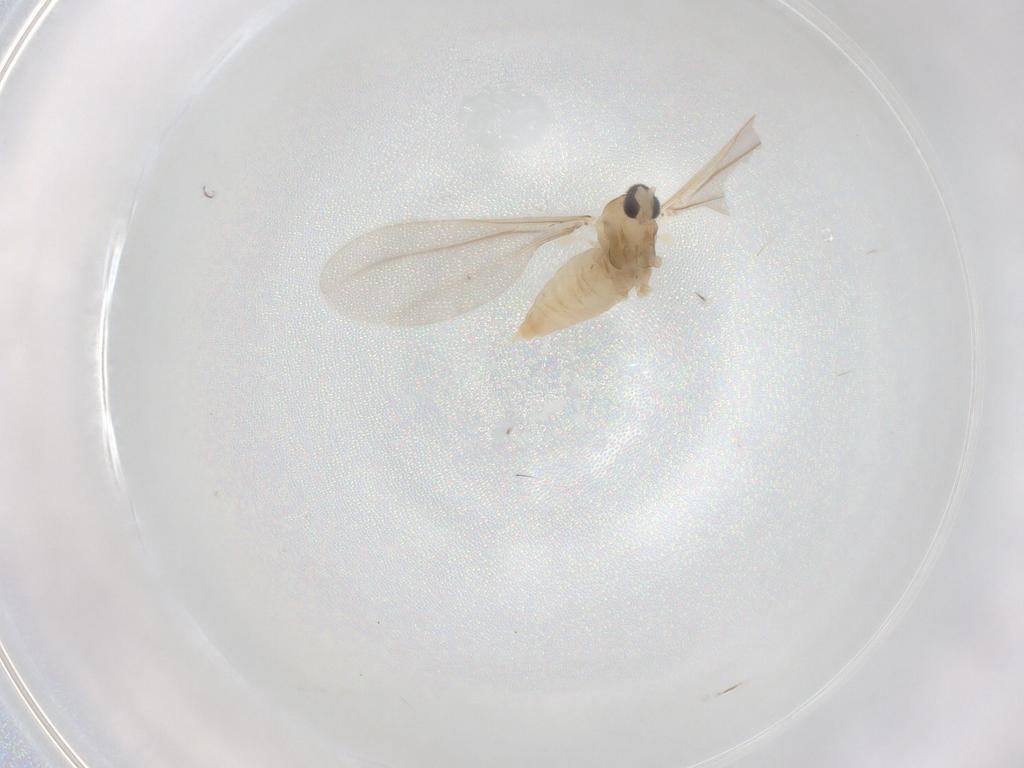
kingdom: Animalia
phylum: Arthropoda
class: Insecta
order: Diptera
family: Cecidomyiidae
